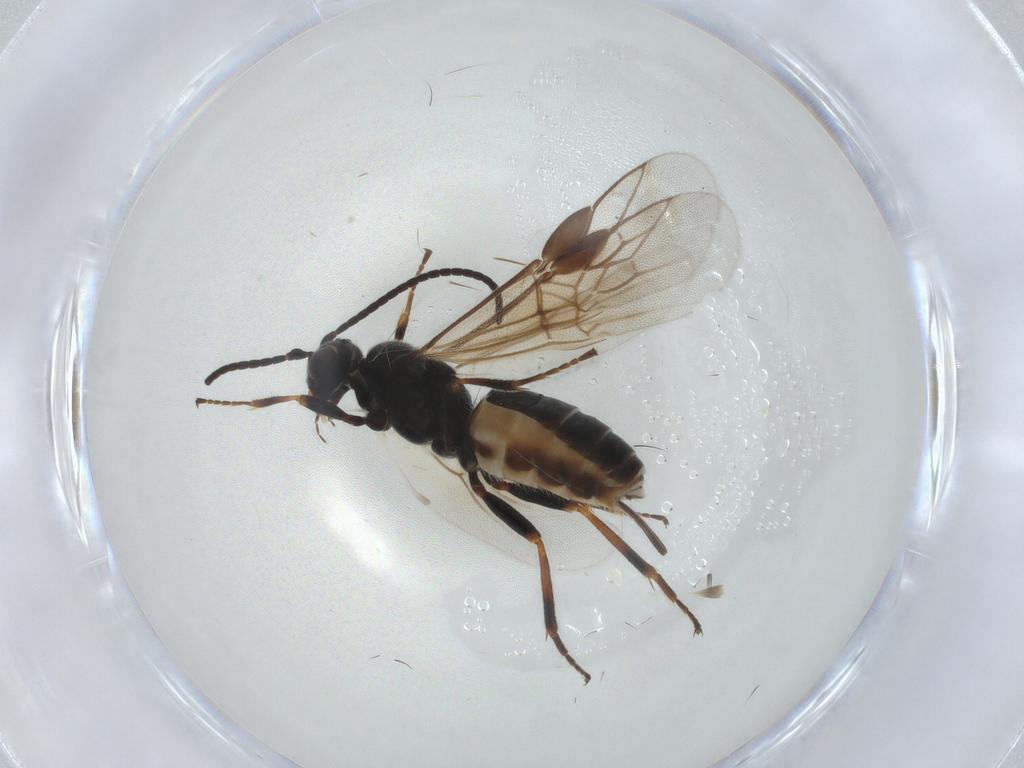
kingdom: Animalia
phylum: Arthropoda
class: Insecta
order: Hymenoptera
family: Braconidae
